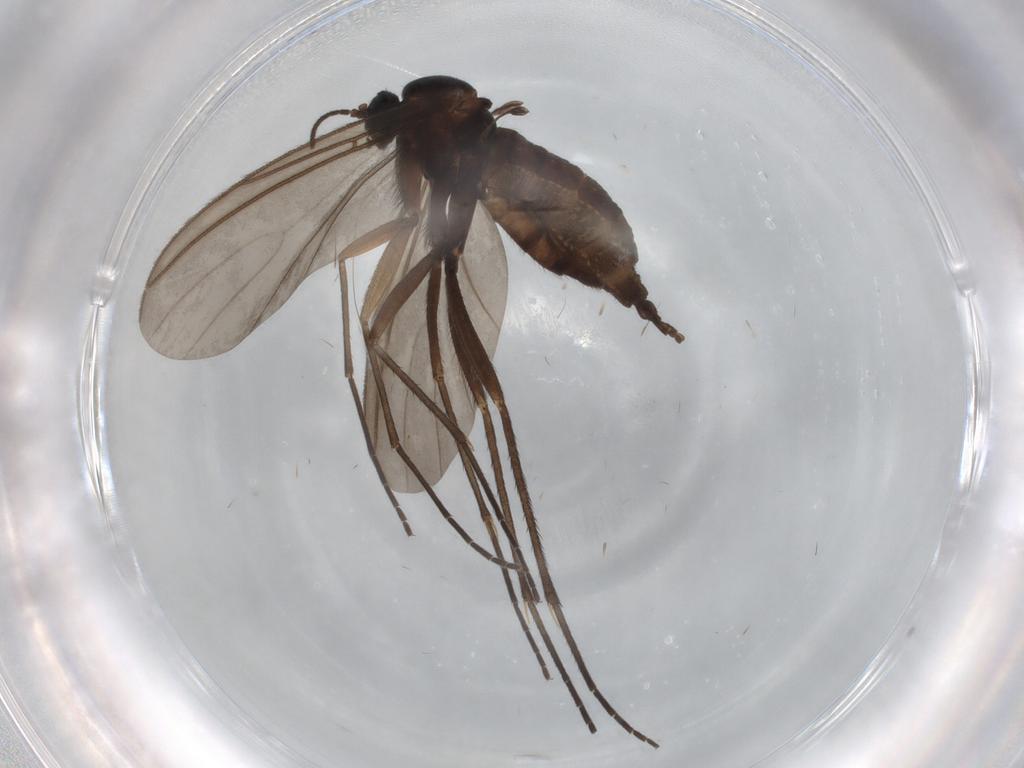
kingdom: Animalia
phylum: Arthropoda
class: Insecta
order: Diptera
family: Sciaridae
